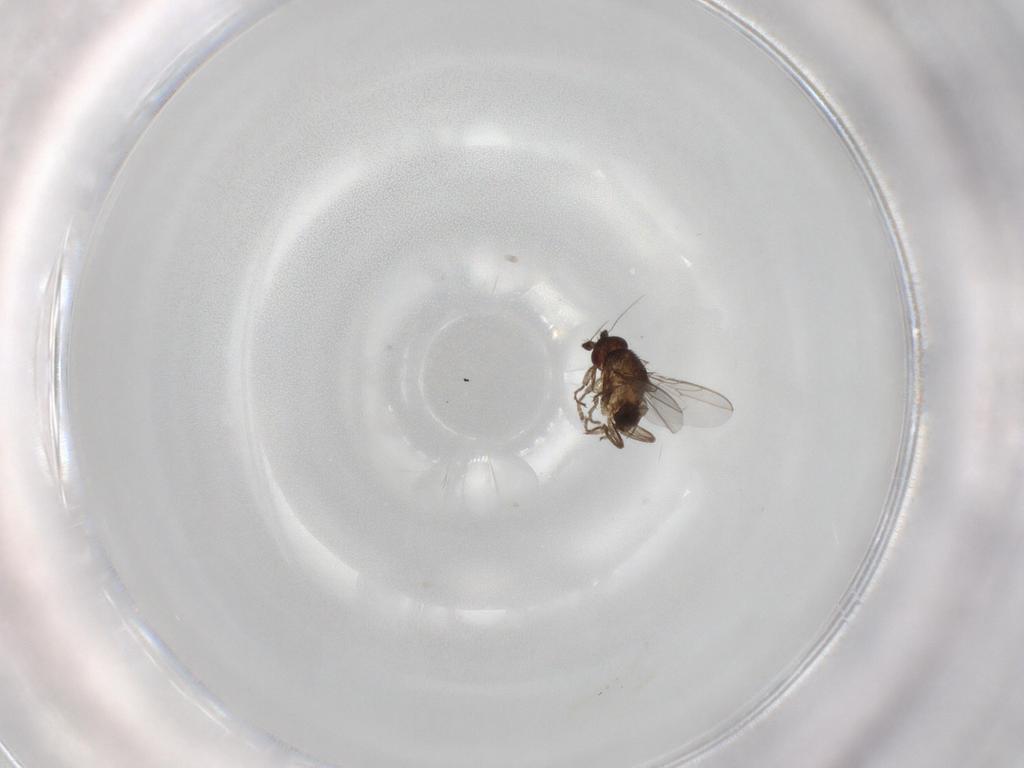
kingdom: Animalia
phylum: Arthropoda
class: Insecta
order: Diptera
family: Sphaeroceridae
